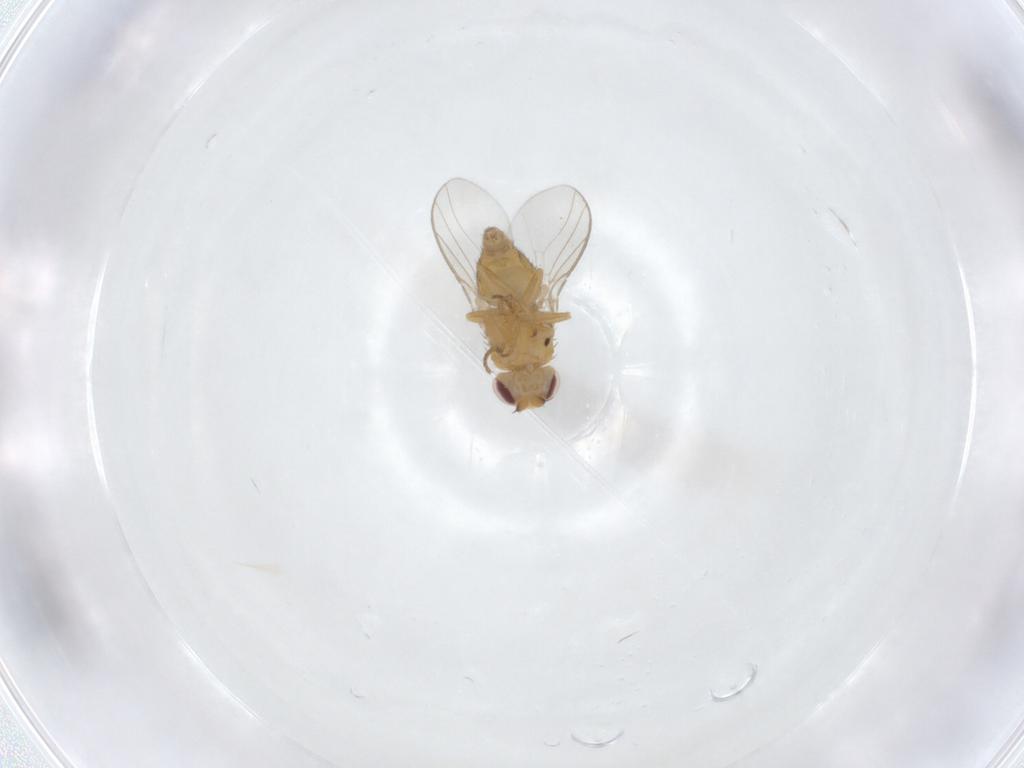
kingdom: Animalia
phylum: Arthropoda
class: Insecta
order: Diptera
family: Chloropidae
